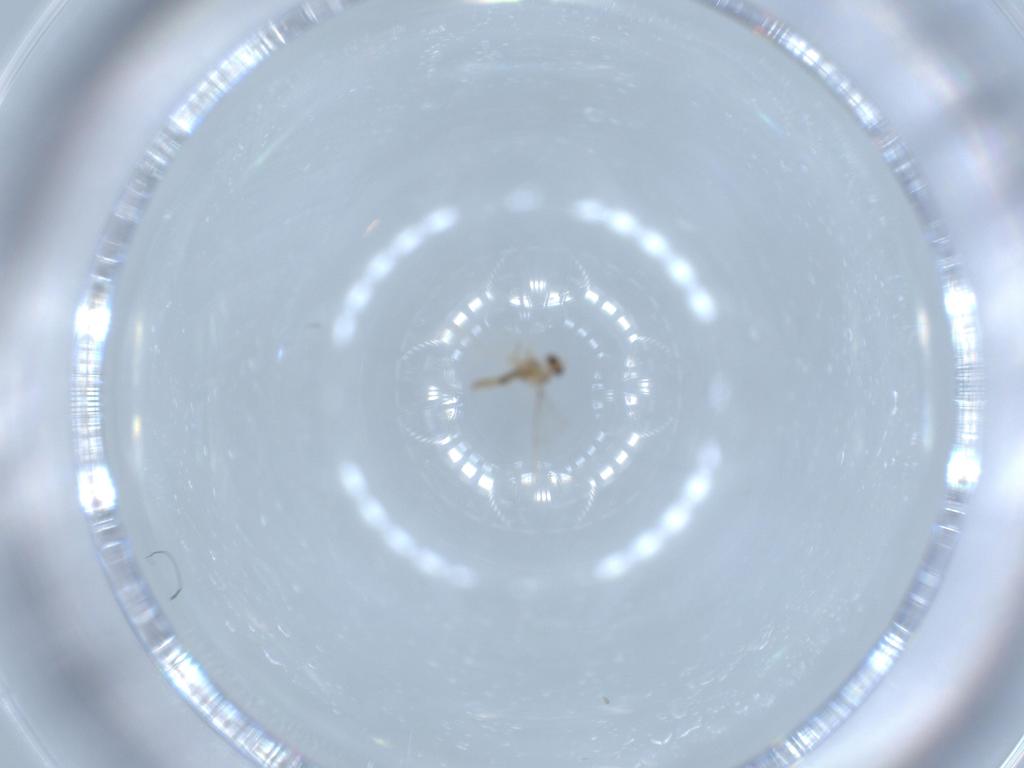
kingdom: Animalia
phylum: Arthropoda
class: Insecta
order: Diptera
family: Cecidomyiidae
